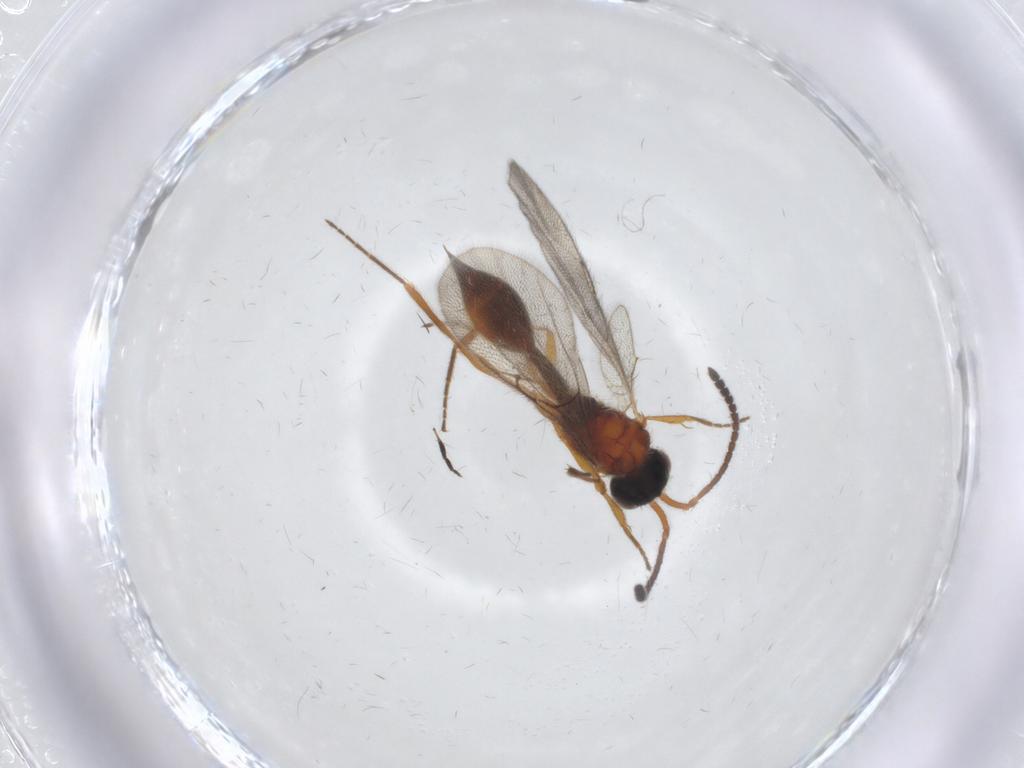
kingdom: Animalia
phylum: Arthropoda
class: Insecta
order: Hymenoptera
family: Diapriidae
